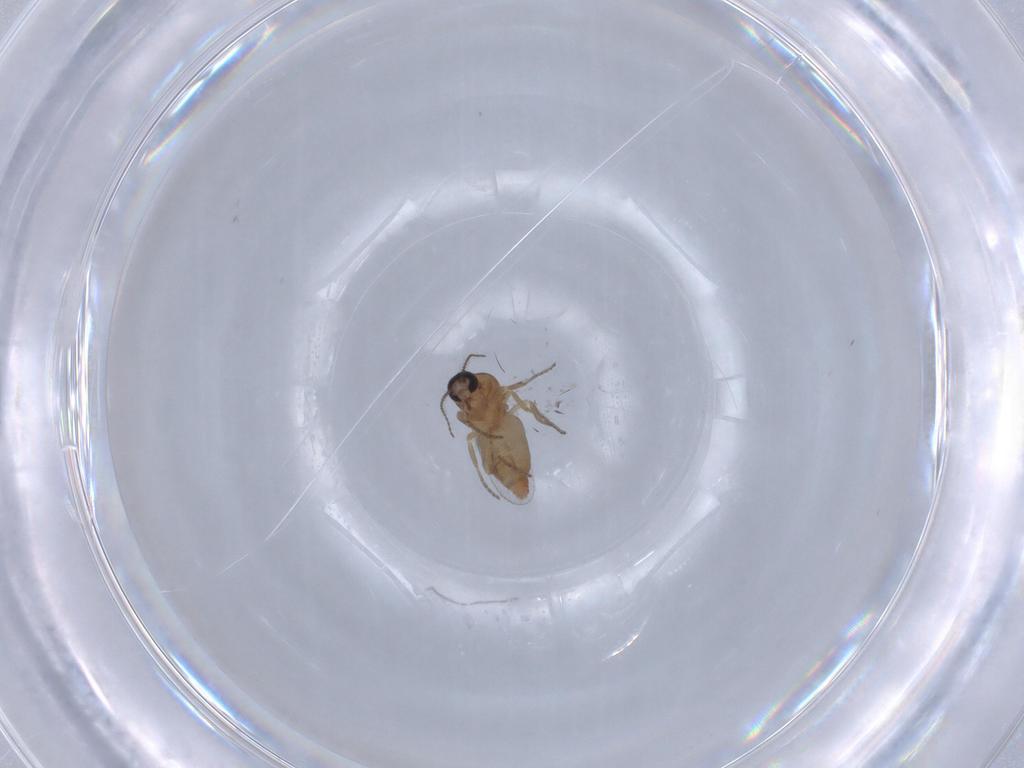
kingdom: Animalia
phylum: Arthropoda
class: Insecta
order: Diptera
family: Ceratopogonidae
